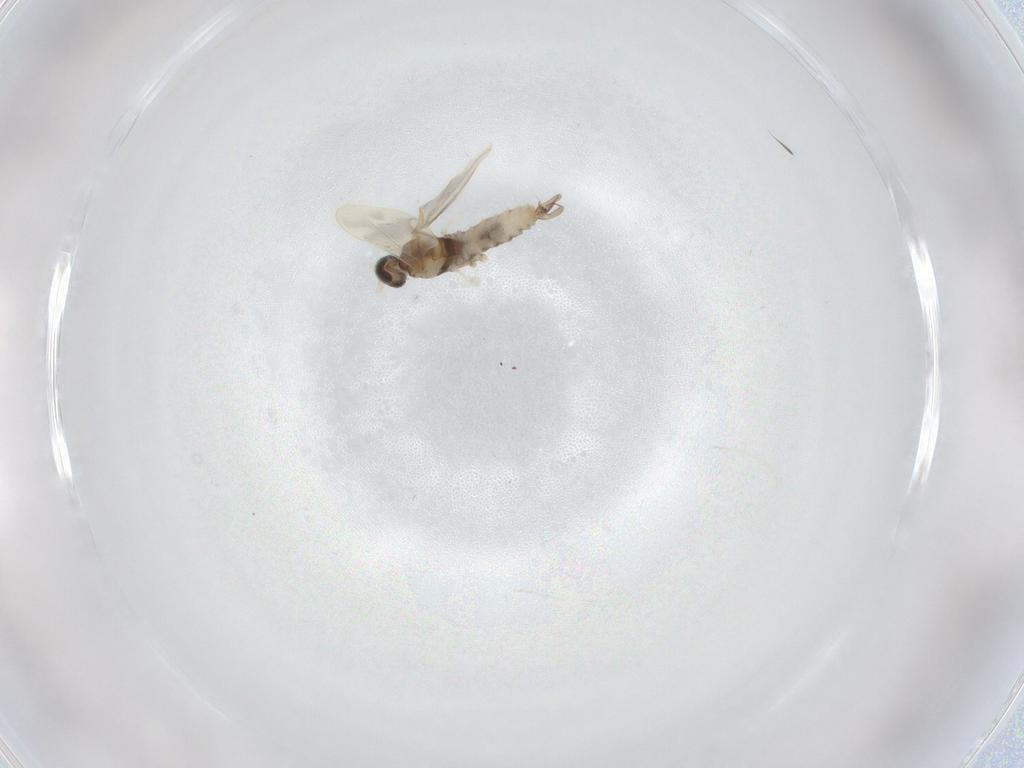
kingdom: Animalia
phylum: Arthropoda
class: Insecta
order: Diptera
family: Cecidomyiidae
